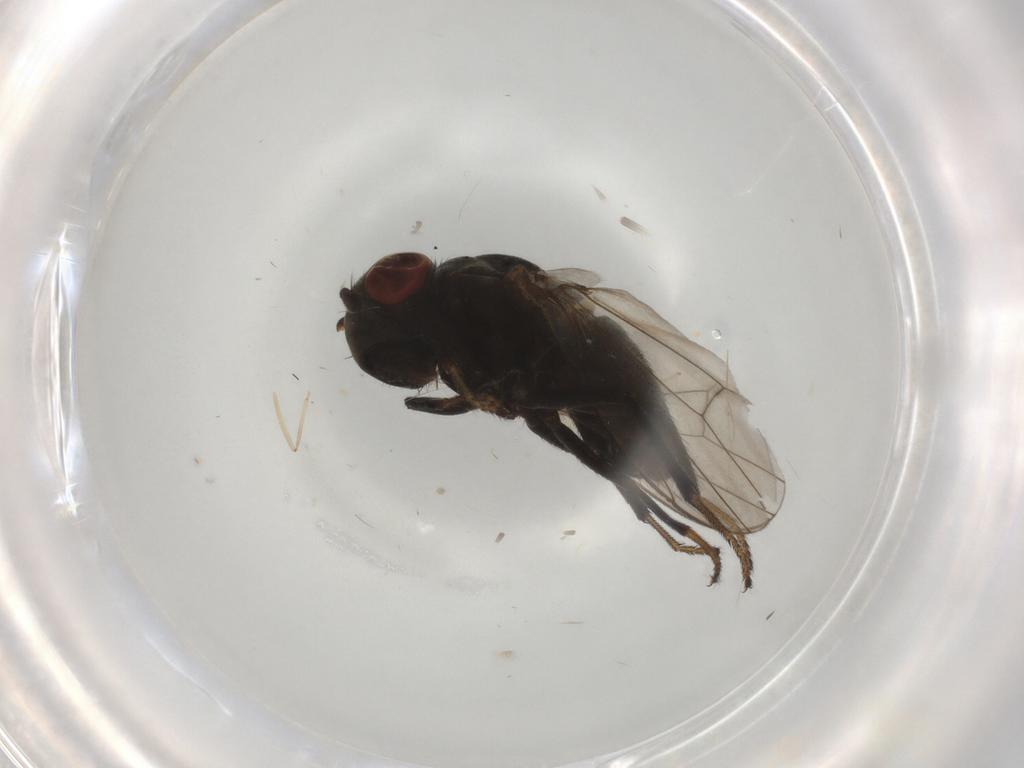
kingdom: Animalia
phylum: Arthropoda
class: Insecta
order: Diptera
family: Ephydridae
